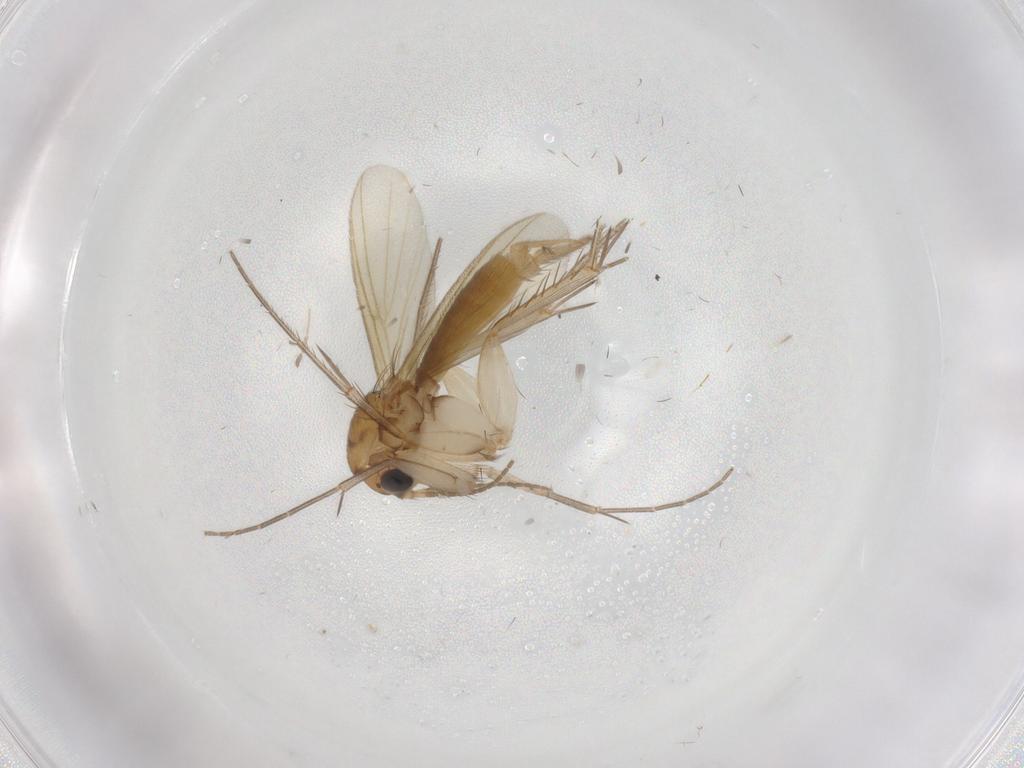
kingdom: Animalia
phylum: Arthropoda
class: Insecta
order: Diptera
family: Mycetophilidae
